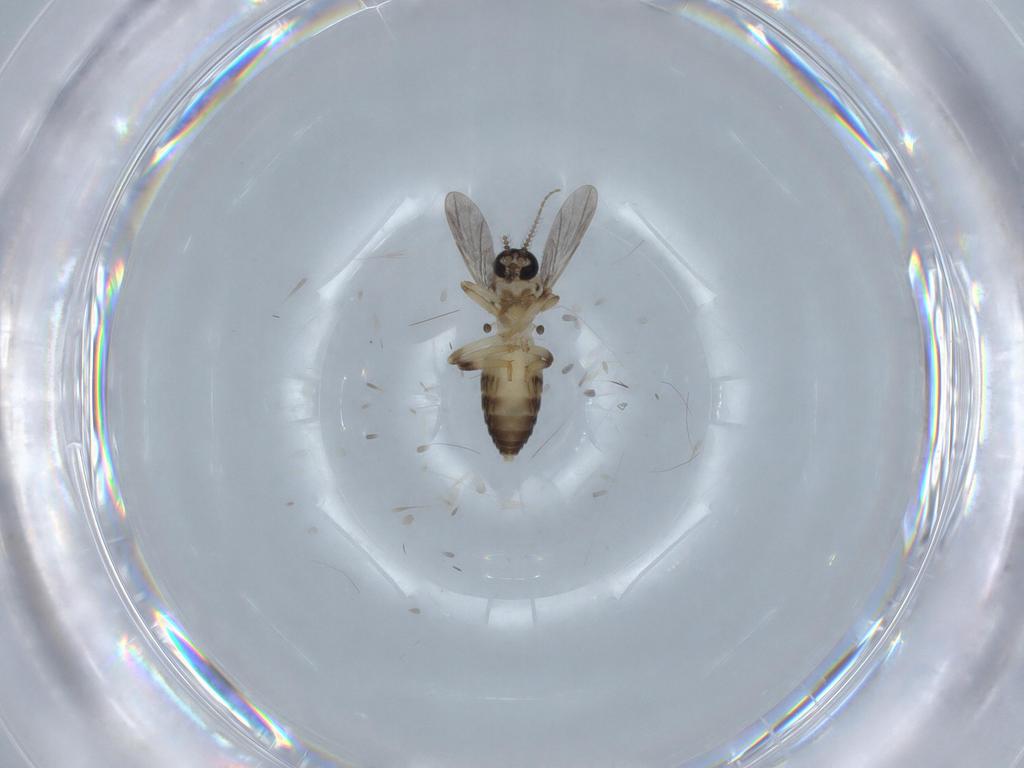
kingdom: Animalia
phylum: Arthropoda
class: Insecta
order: Diptera
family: Ceratopogonidae
